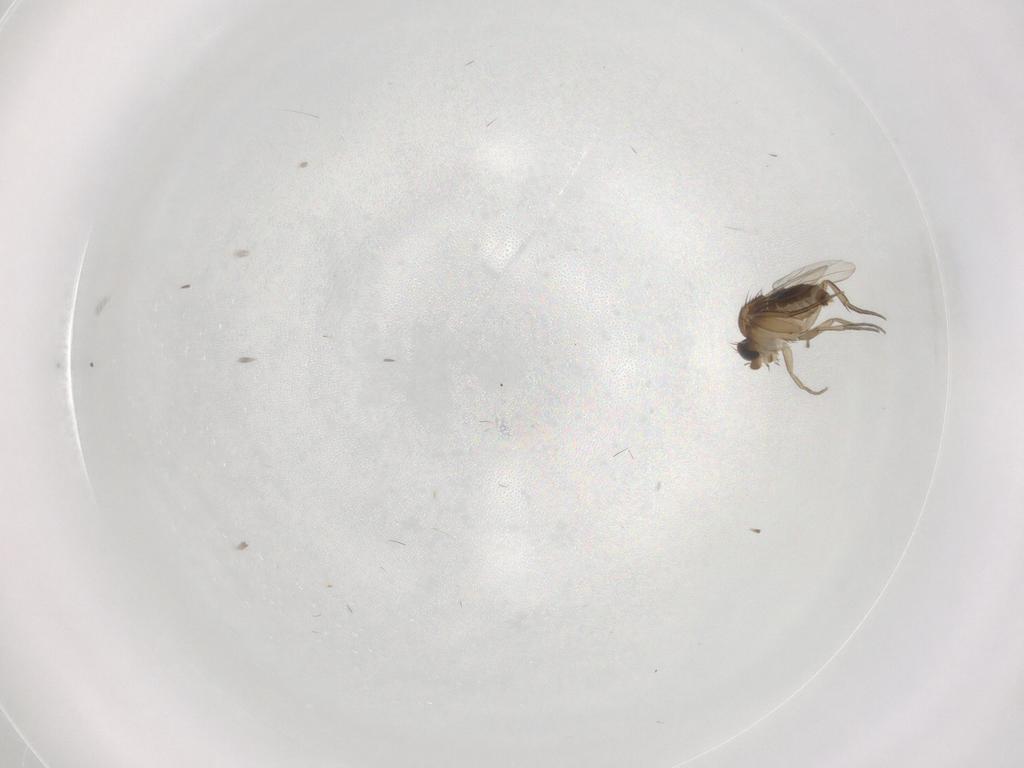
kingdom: Animalia
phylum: Arthropoda
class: Insecta
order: Diptera
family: Phoridae
